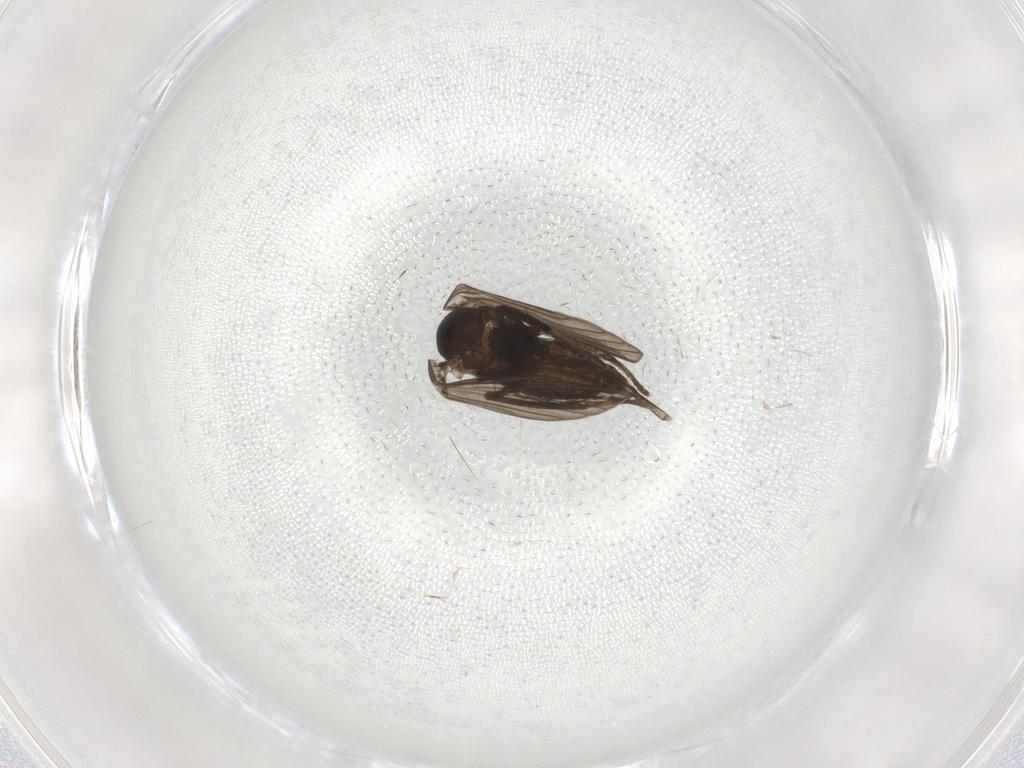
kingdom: Animalia
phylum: Arthropoda
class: Insecta
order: Diptera
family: Psychodidae
